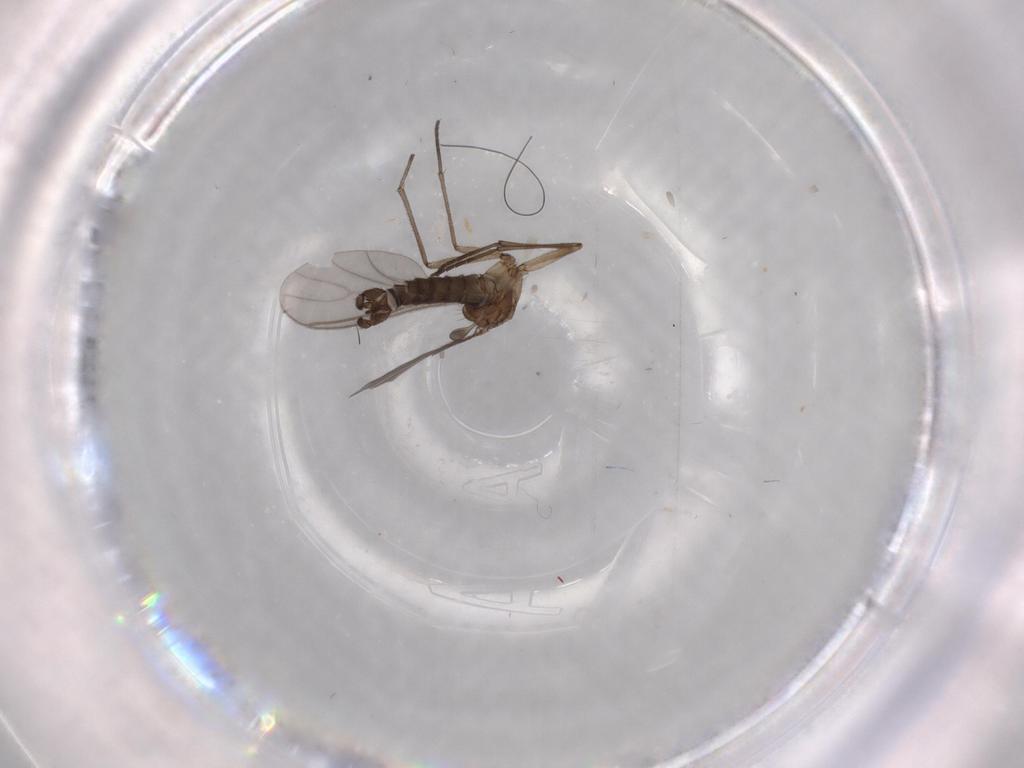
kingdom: Animalia
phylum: Arthropoda
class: Insecta
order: Diptera
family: Sciaridae
